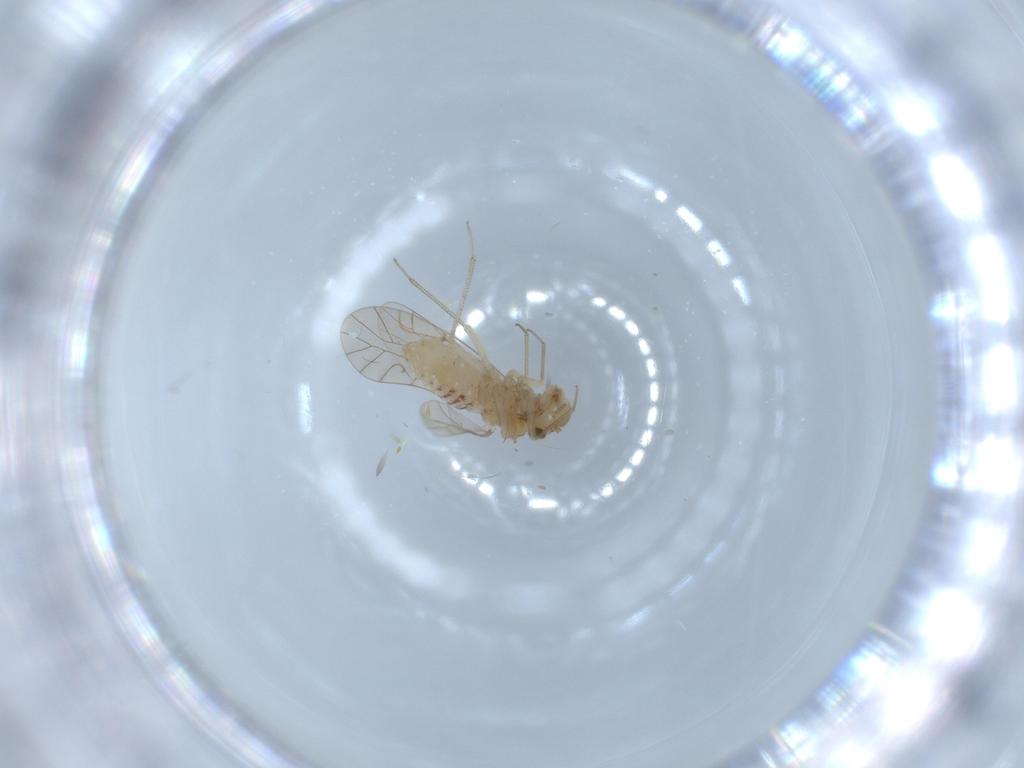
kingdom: Animalia
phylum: Arthropoda
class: Insecta
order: Psocodea
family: Lachesillidae
